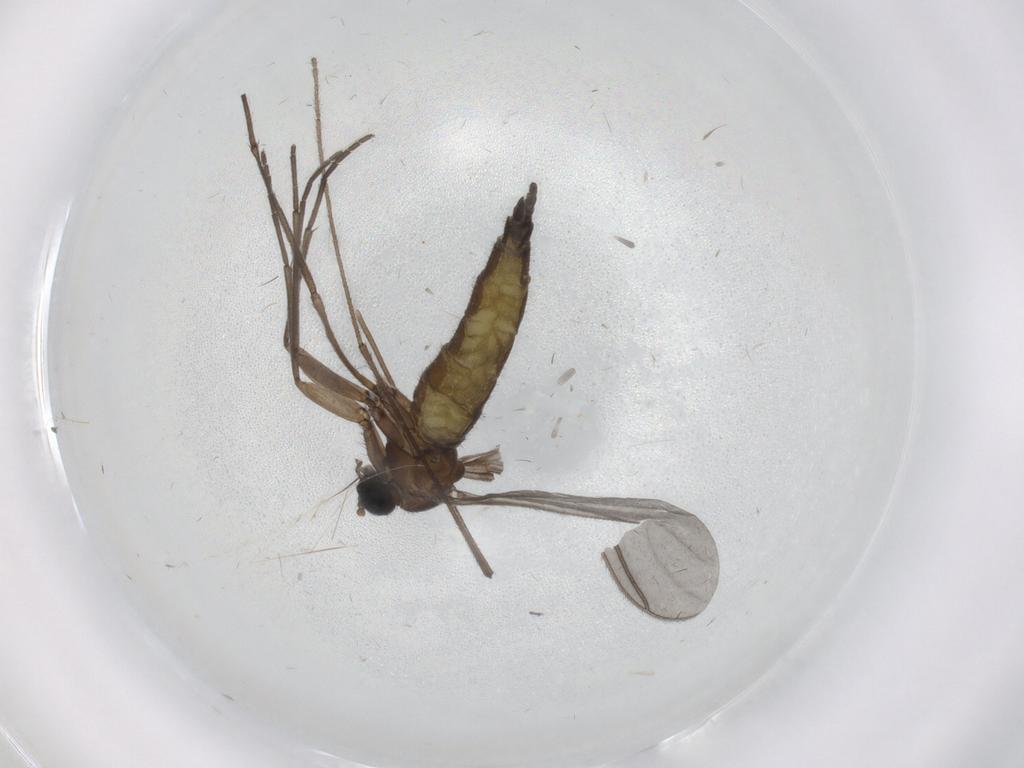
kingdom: Animalia
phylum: Arthropoda
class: Insecta
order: Diptera
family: Sciaridae
